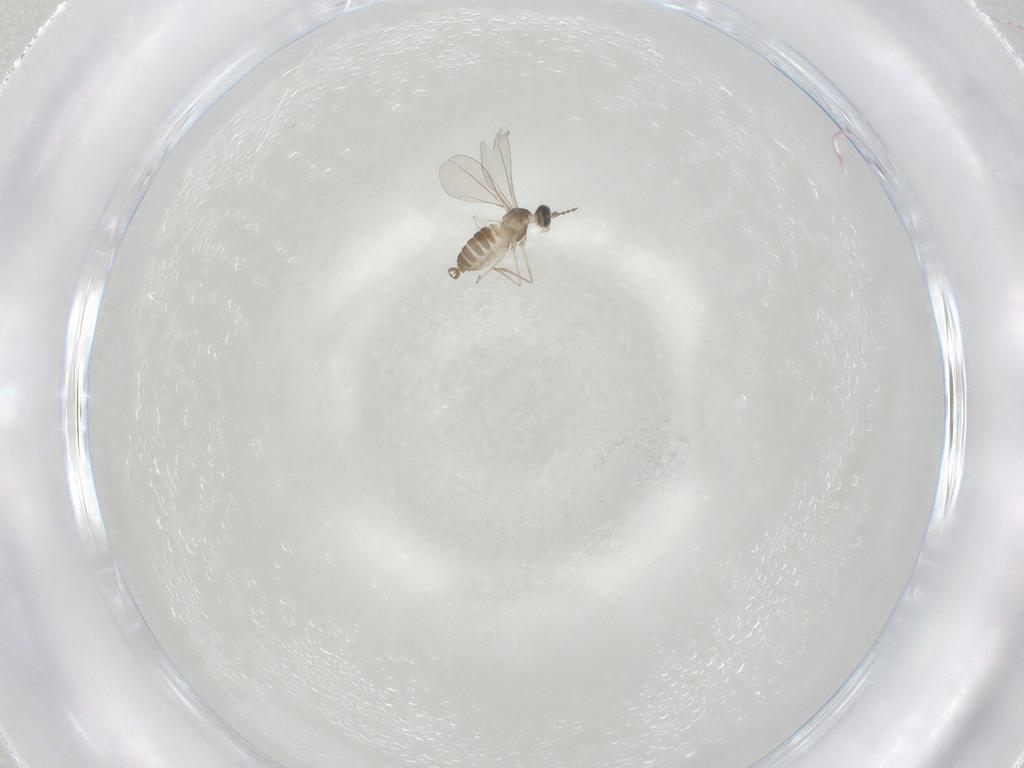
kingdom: Animalia
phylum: Arthropoda
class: Insecta
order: Diptera
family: Cecidomyiidae
